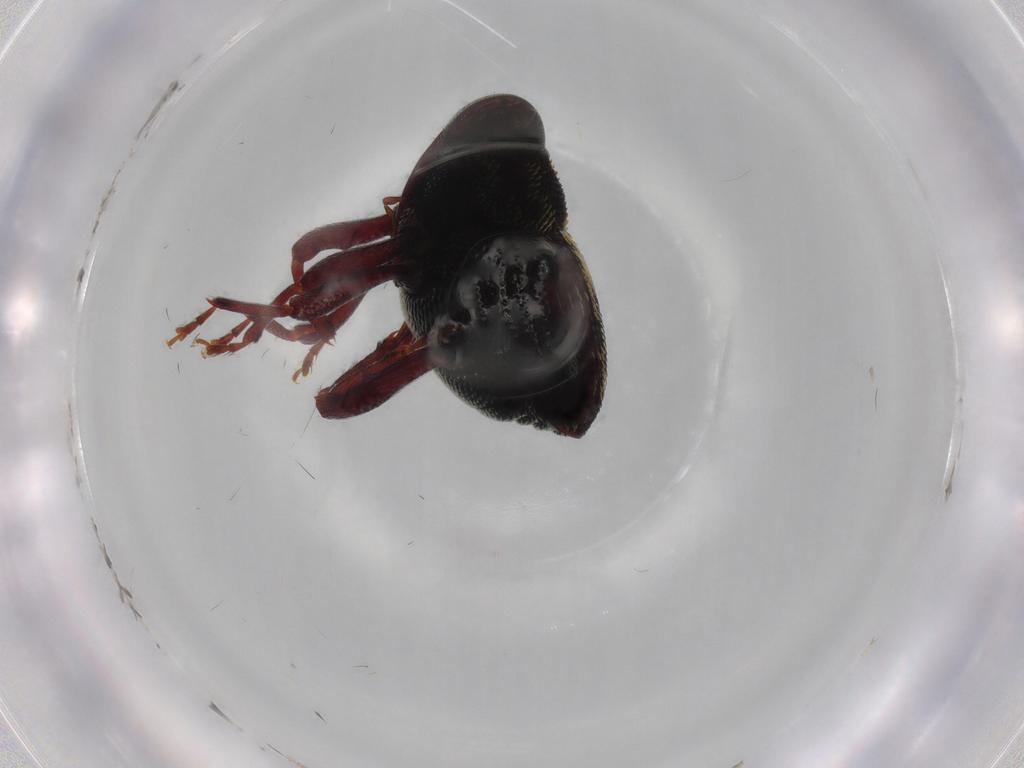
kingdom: Animalia
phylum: Arthropoda
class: Insecta
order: Coleoptera
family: Curculionidae
